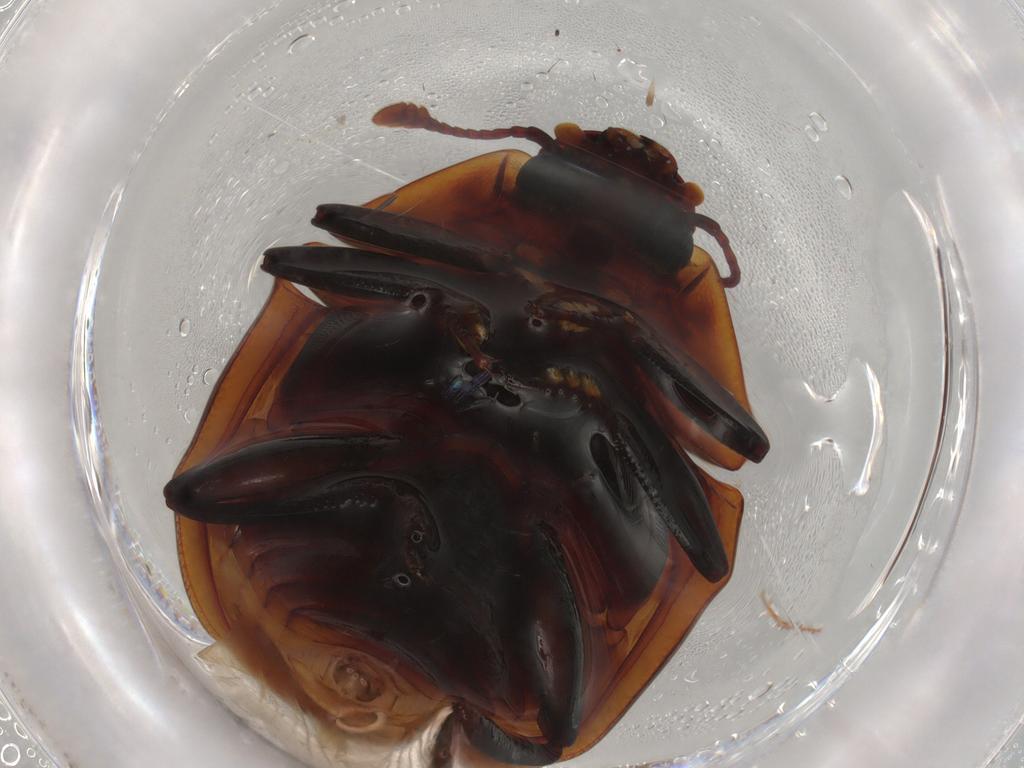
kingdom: Animalia
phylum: Arthropoda
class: Insecta
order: Coleoptera
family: Zopheridae
